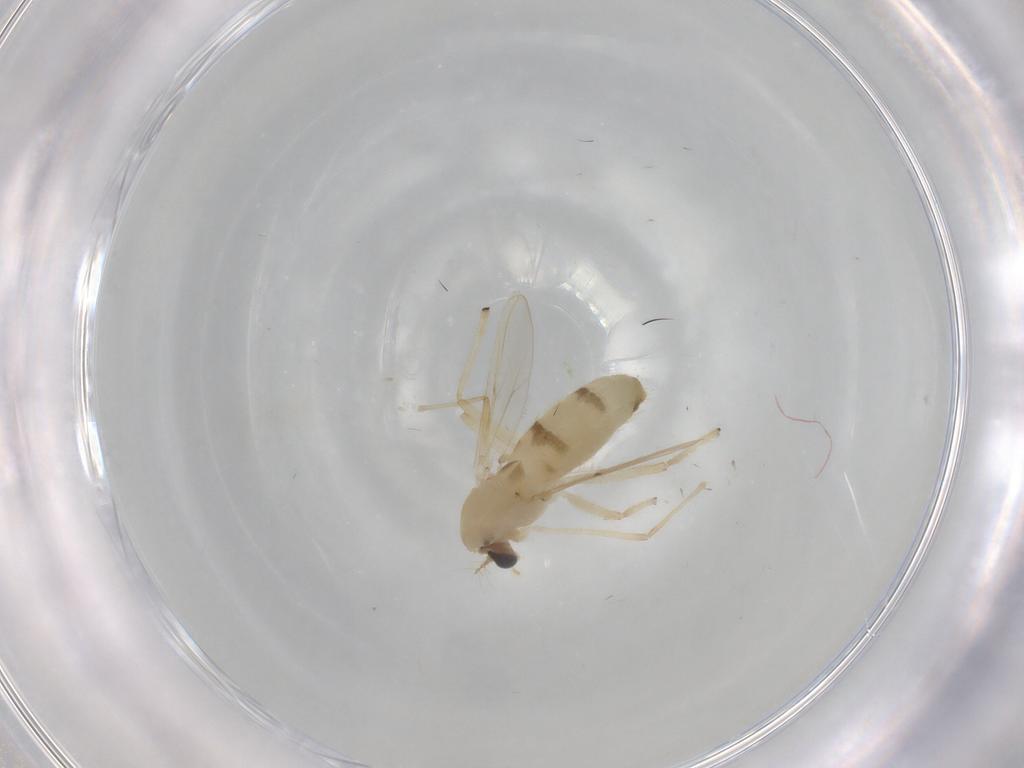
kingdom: Animalia
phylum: Arthropoda
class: Insecta
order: Diptera
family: Chironomidae
